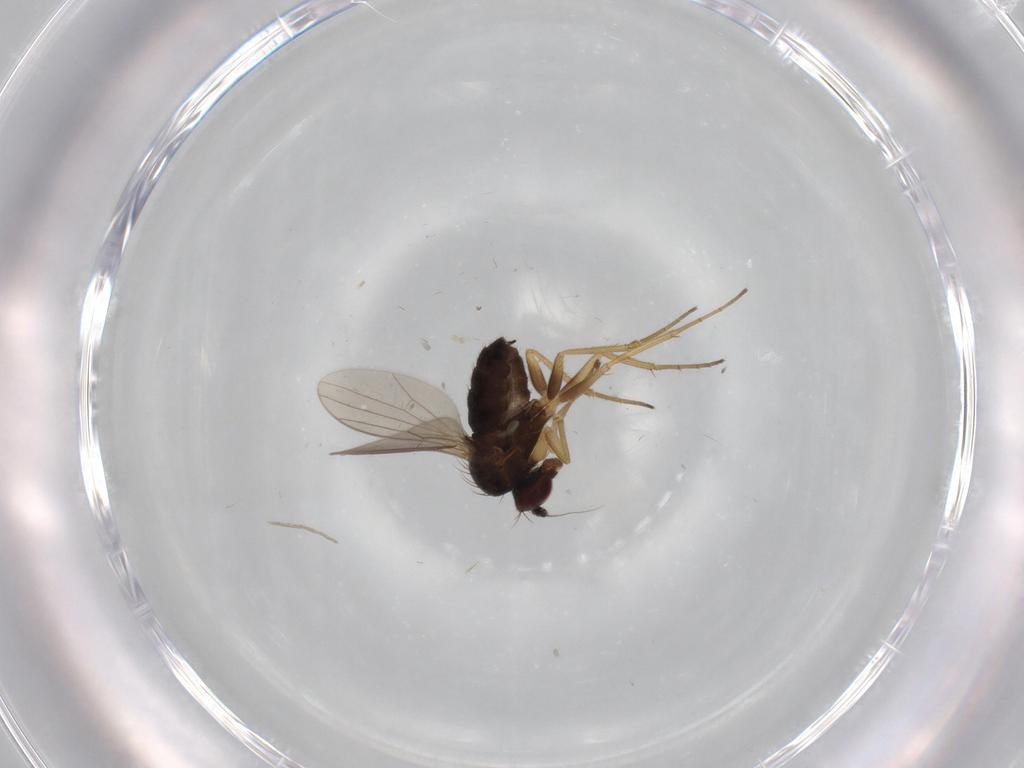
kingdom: Animalia
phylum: Arthropoda
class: Insecta
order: Diptera
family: Dolichopodidae
